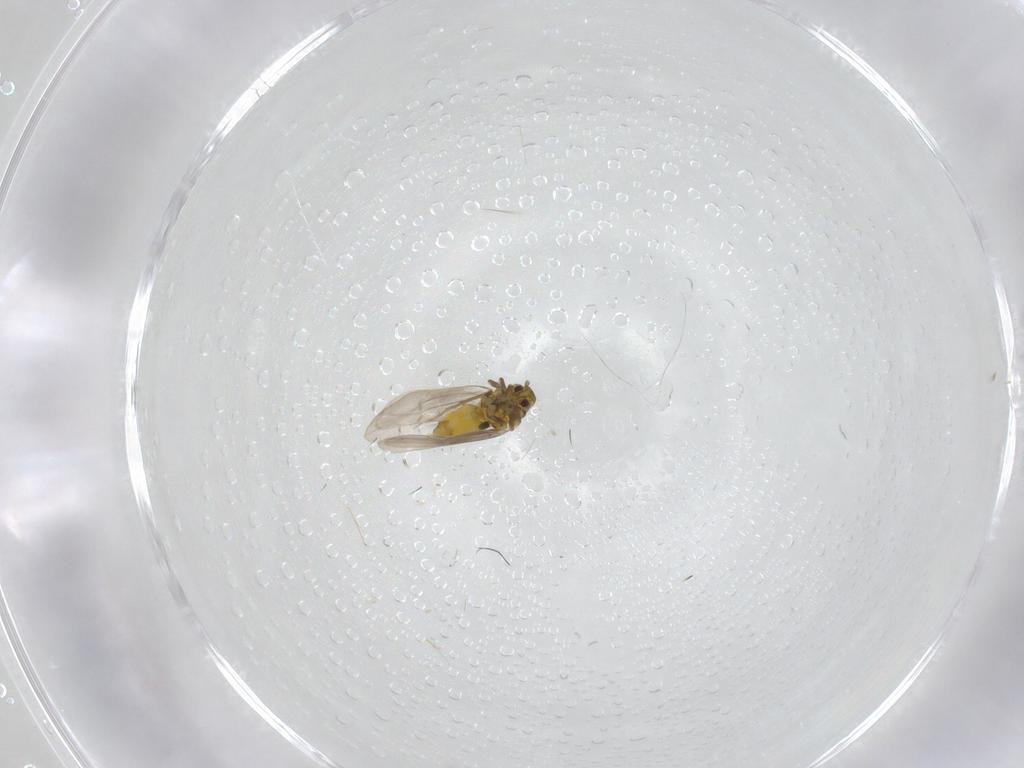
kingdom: Animalia
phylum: Arthropoda
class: Insecta
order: Hemiptera
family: Aleyrodidae
